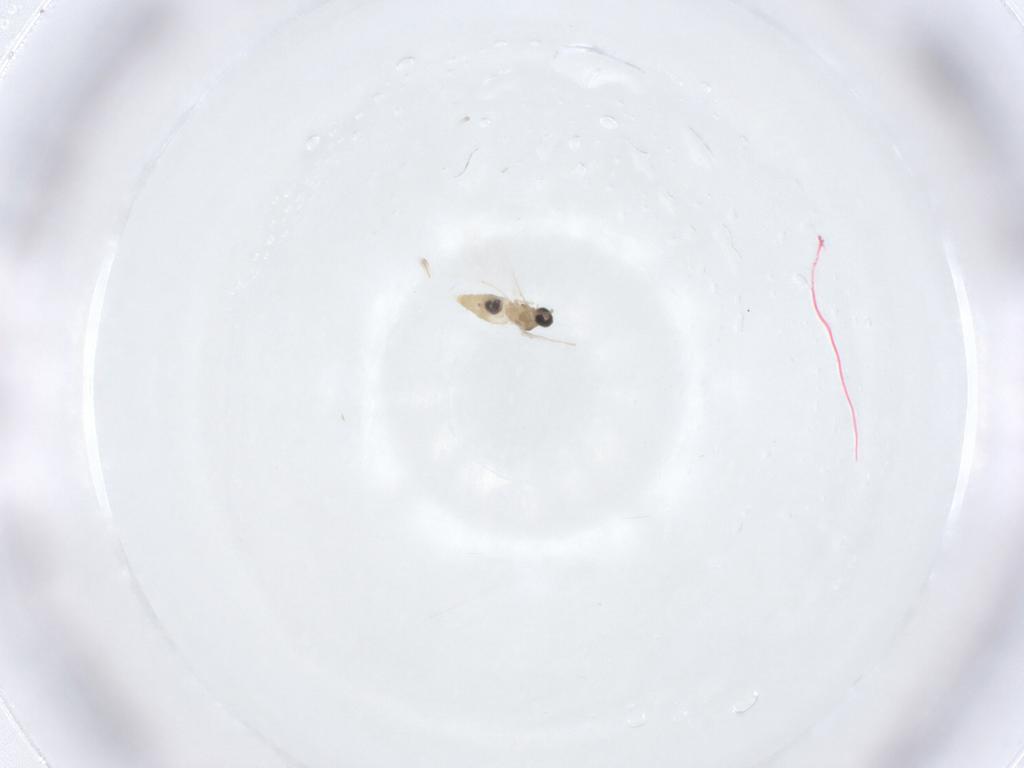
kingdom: Animalia
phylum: Arthropoda
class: Insecta
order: Diptera
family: Cecidomyiidae
